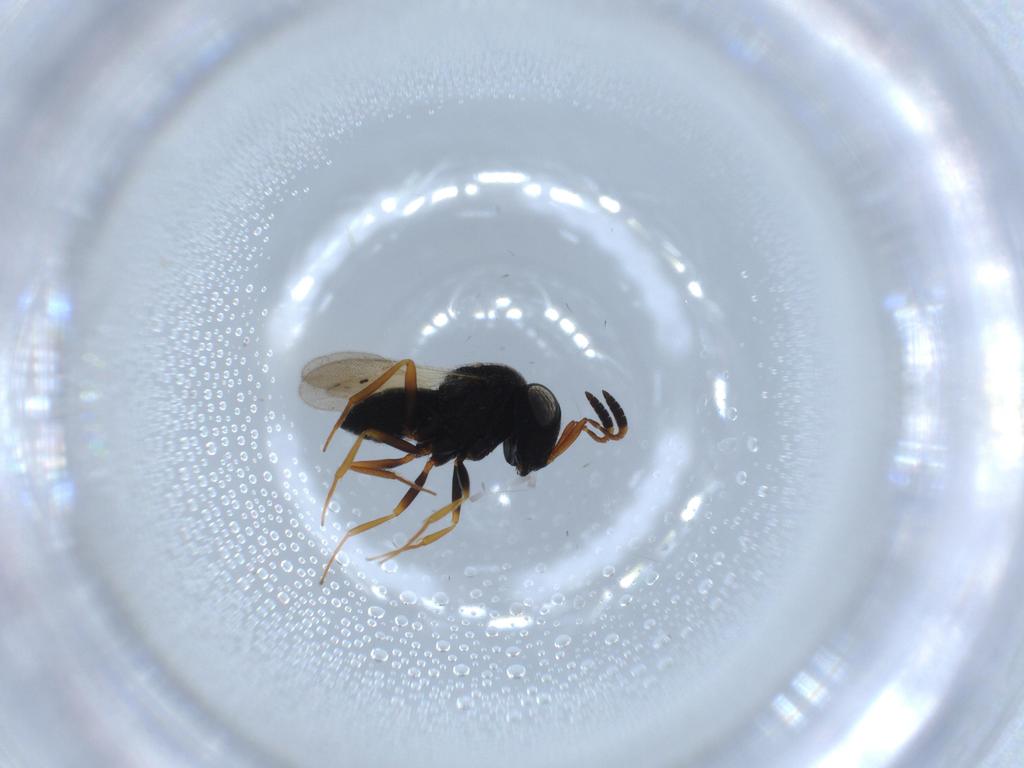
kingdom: Animalia
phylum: Arthropoda
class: Insecta
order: Hymenoptera
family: Scelionidae
